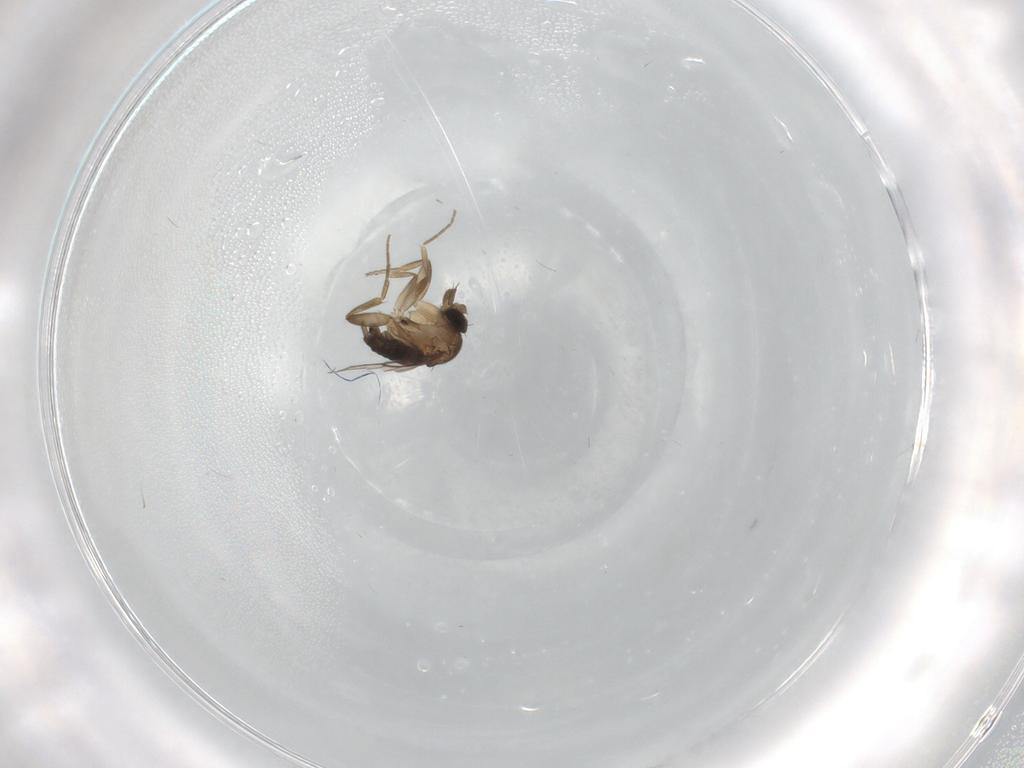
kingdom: Animalia
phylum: Arthropoda
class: Insecta
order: Diptera
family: Phoridae
